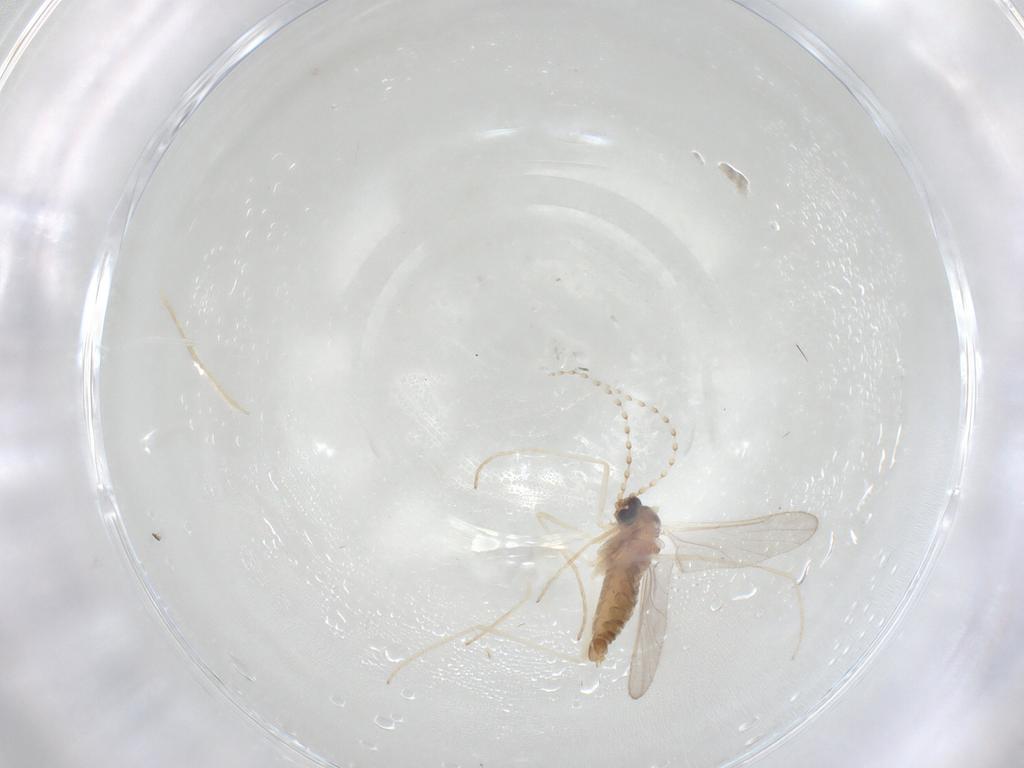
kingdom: Animalia
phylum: Arthropoda
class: Insecta
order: Diptera
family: Cecidomyiidae
